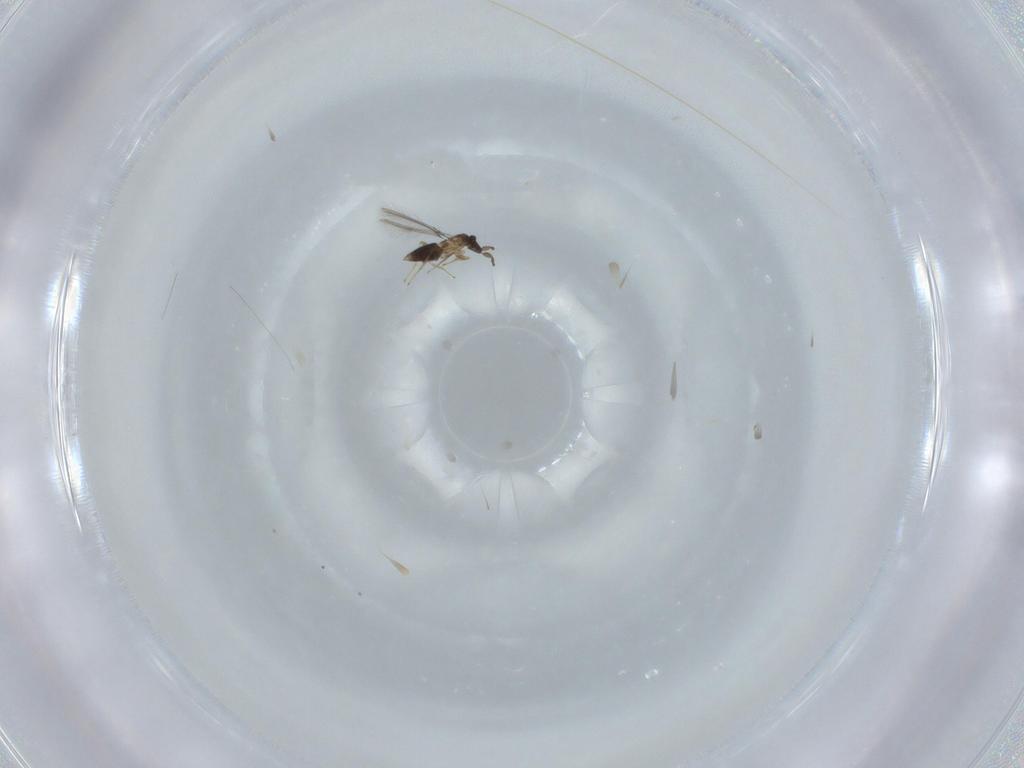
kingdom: Animalia
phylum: Arthropoda
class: Insecta
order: Hymenoptera
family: Mymaridae
